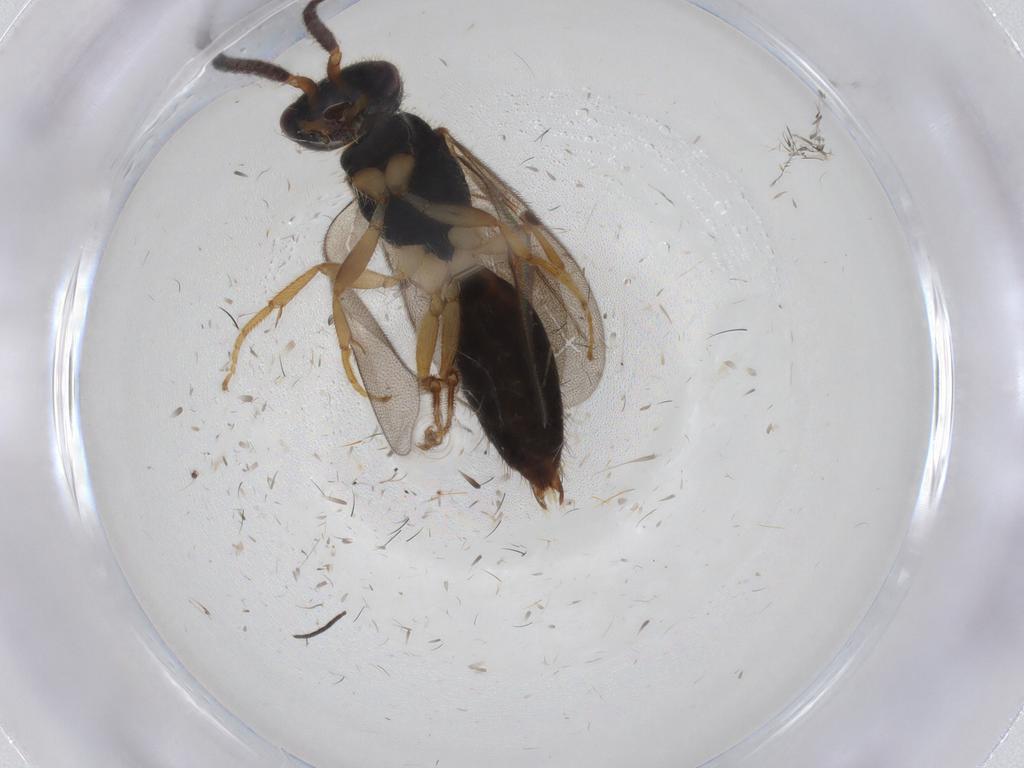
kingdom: Animalia
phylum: Arthropoda
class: Insecta
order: Hymenoptera
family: Bethylidae
